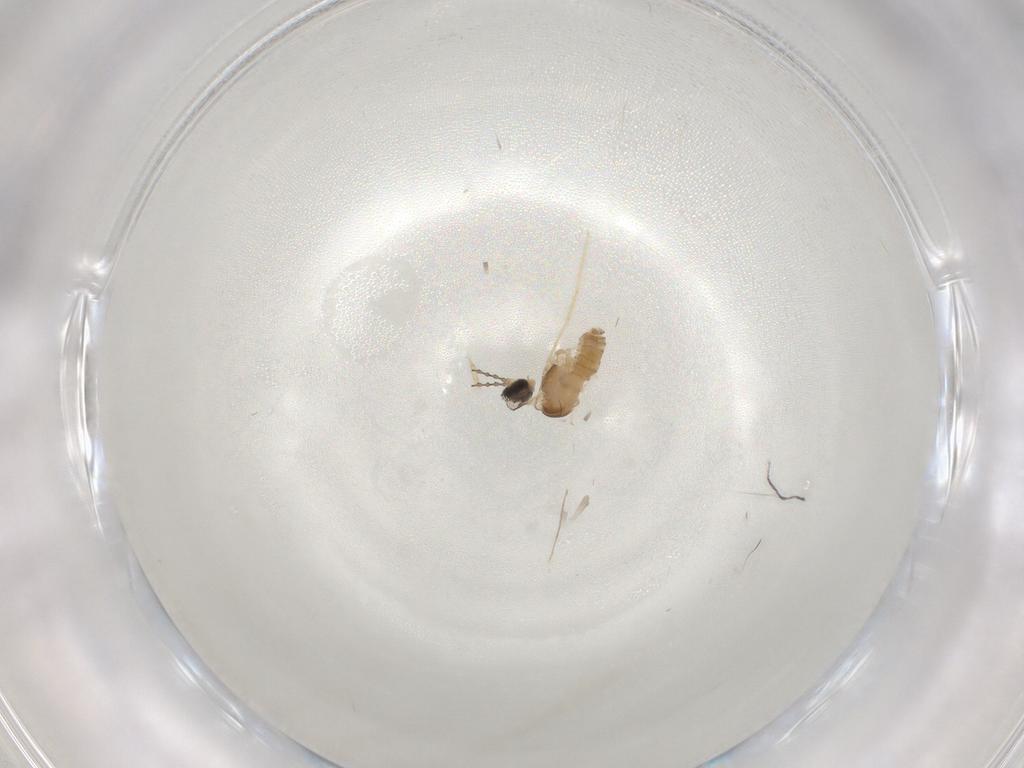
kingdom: Animalia
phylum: Arthropoda
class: Insecta
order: Diptera
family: Cecidomyiidae
